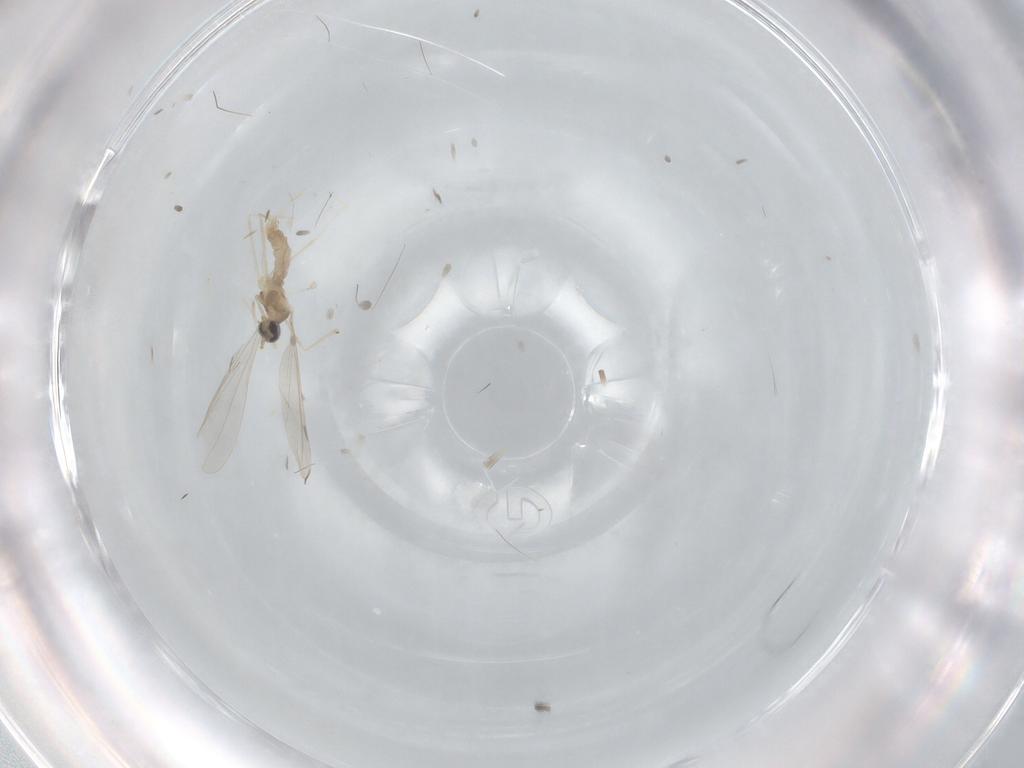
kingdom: Animalia
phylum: Arthropoda
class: Insecta
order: Diptera
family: Cecidomyiidae
